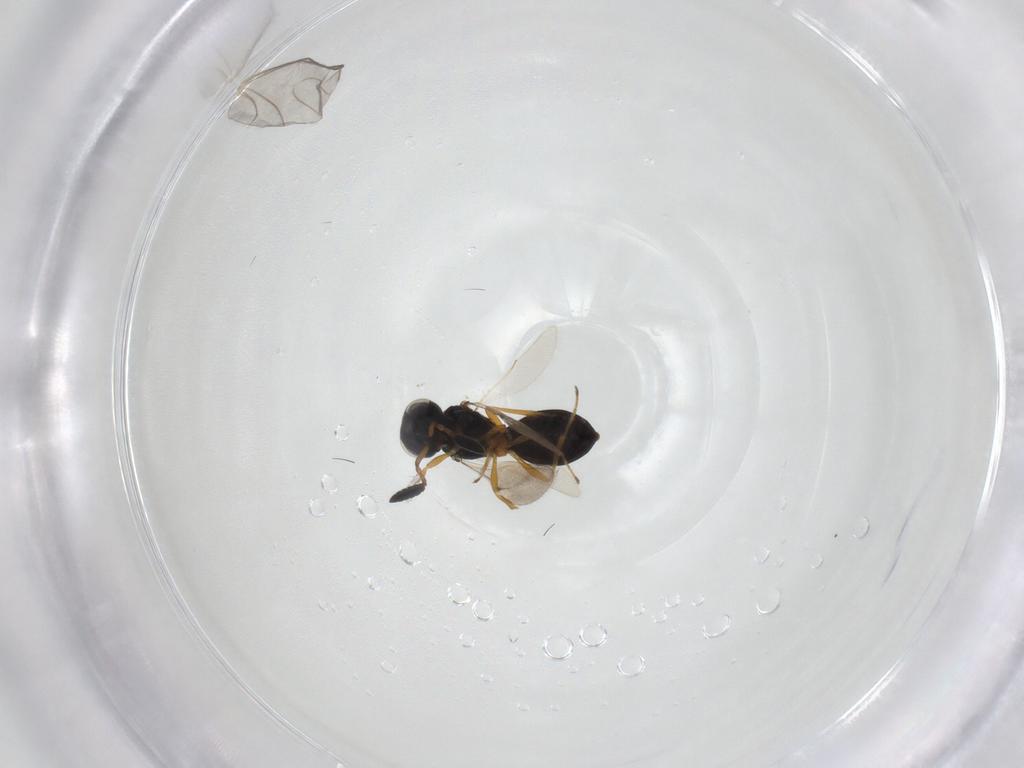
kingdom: Animalia
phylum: Arthropoda
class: Insecta
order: Hymenoptera
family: Scelionidae
